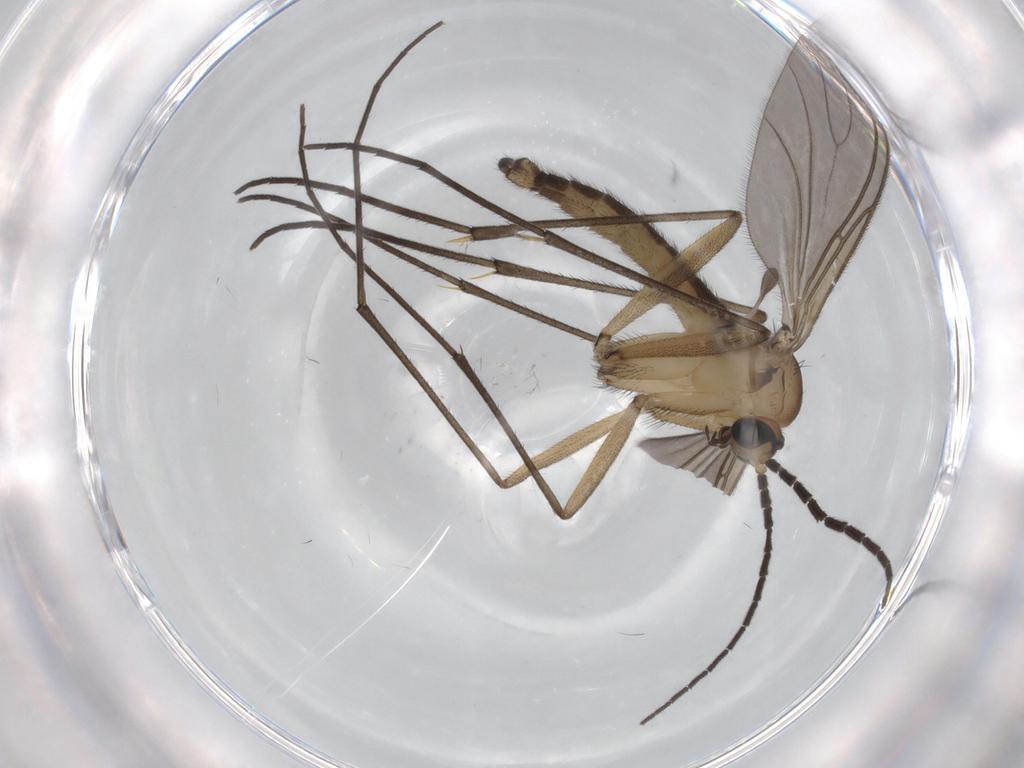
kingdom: Animalia
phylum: Arthropoda
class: Insecta
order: Diptera
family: Sciaridae
